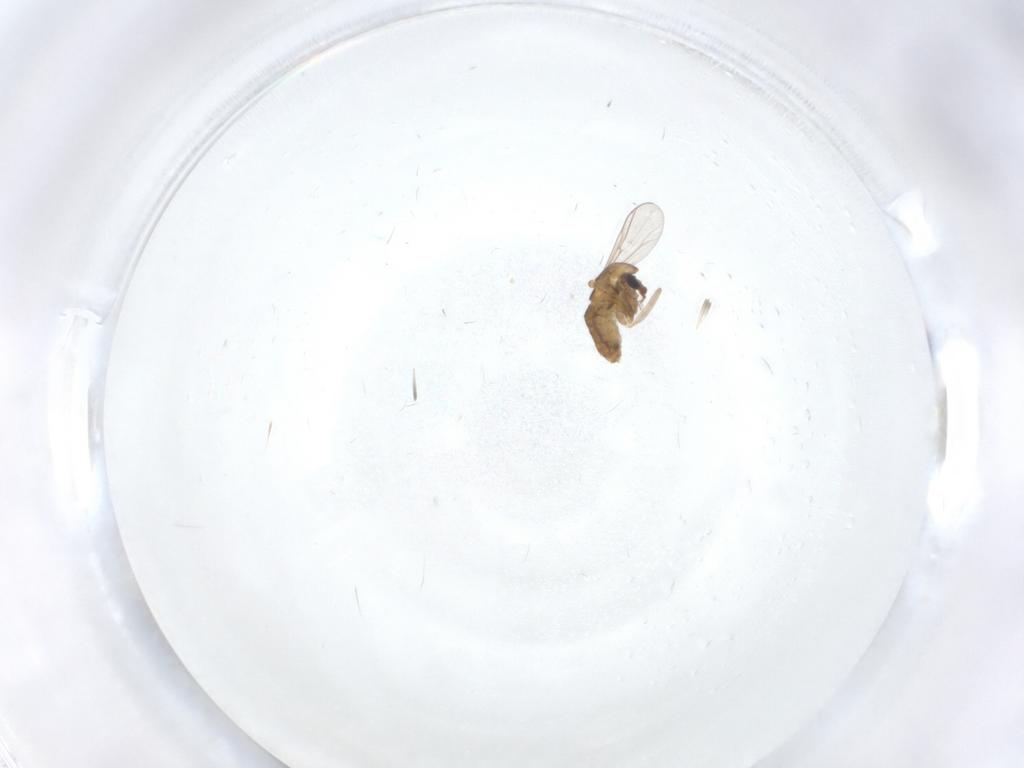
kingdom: Animalia
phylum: Arthropoda
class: Insecta
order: Diptera
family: Chironomidae
